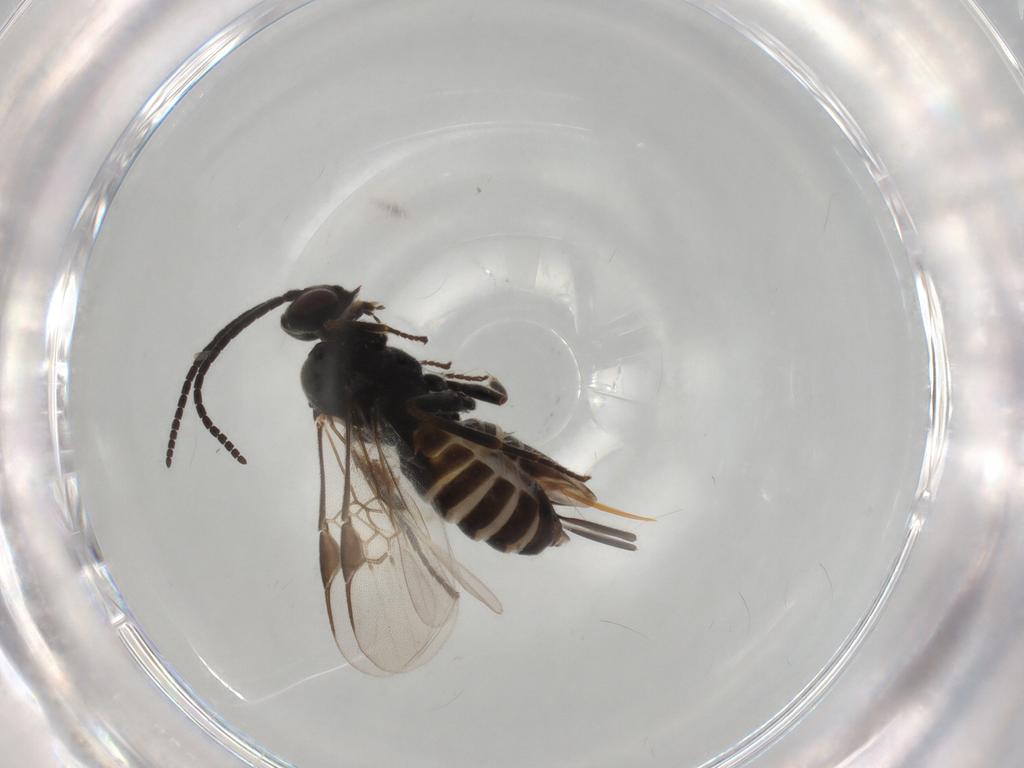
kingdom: Animalia
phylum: Arthropoda
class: Insecta
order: Hymenoptera
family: Braconidae
